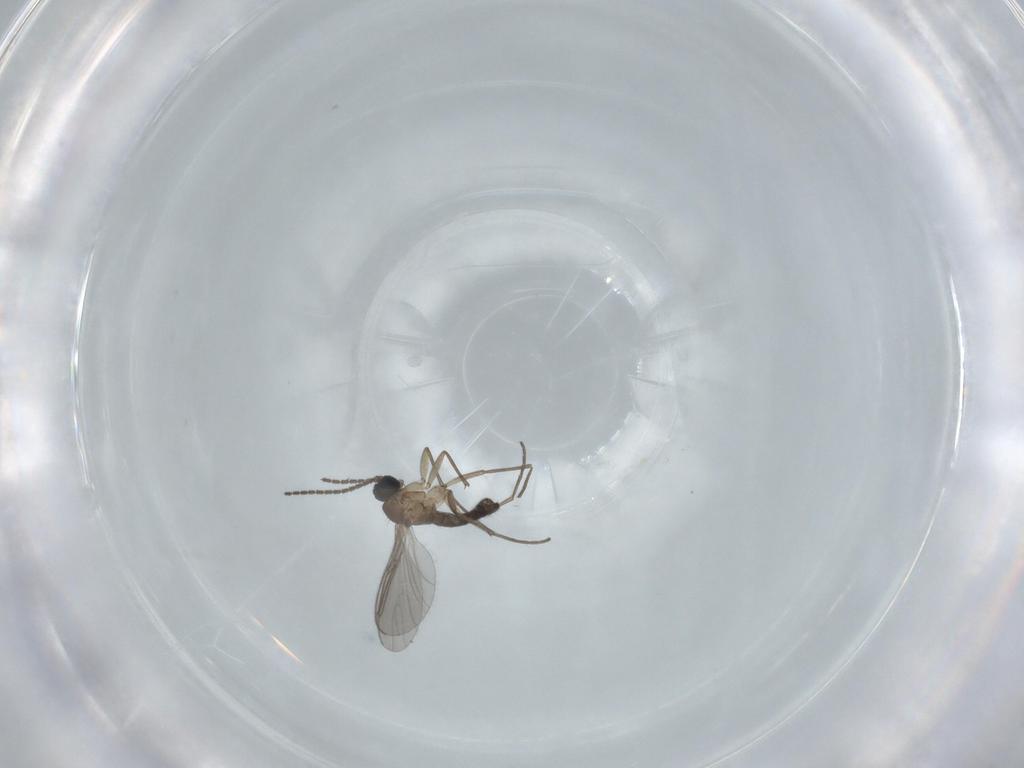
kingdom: Animalia
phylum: Arthropoda
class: Insecta
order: Diptera
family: Sciaridae
